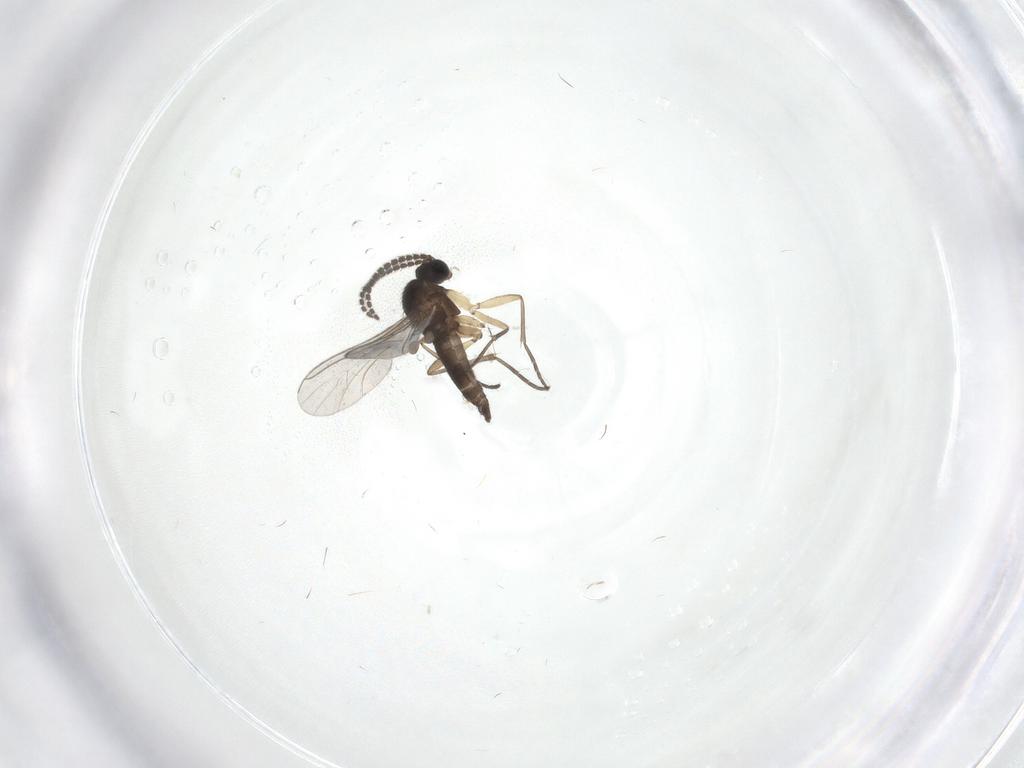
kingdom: Animalia
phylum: Arthropoda
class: Insecta
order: Diptera
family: Sciaridae
